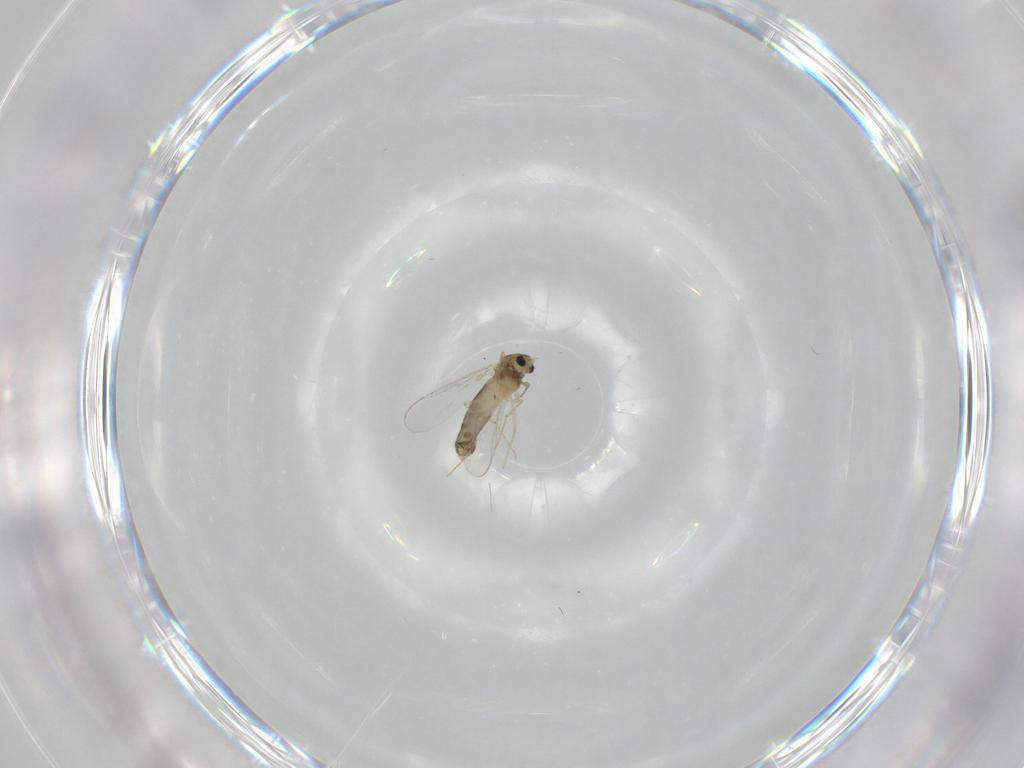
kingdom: Animalia
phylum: Arthropoda
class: Insecta
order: Diptera
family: Chironomidae
